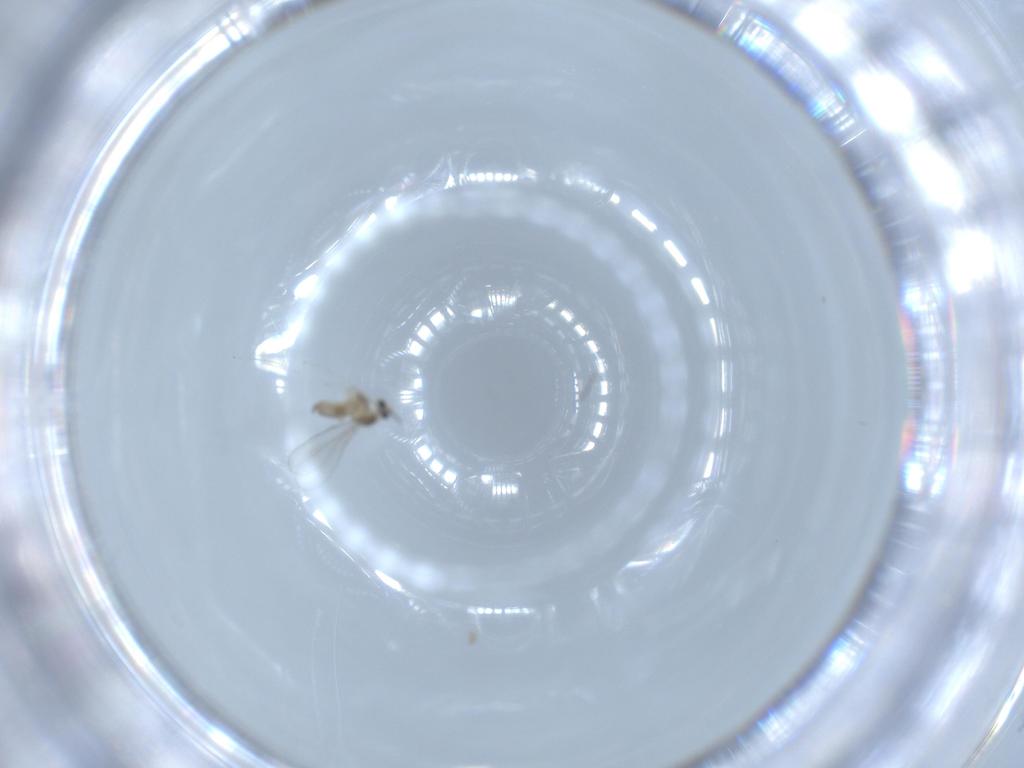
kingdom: Animalia
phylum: Arthropoda
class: Insecta
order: Diptera
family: Cecidomyiidae
